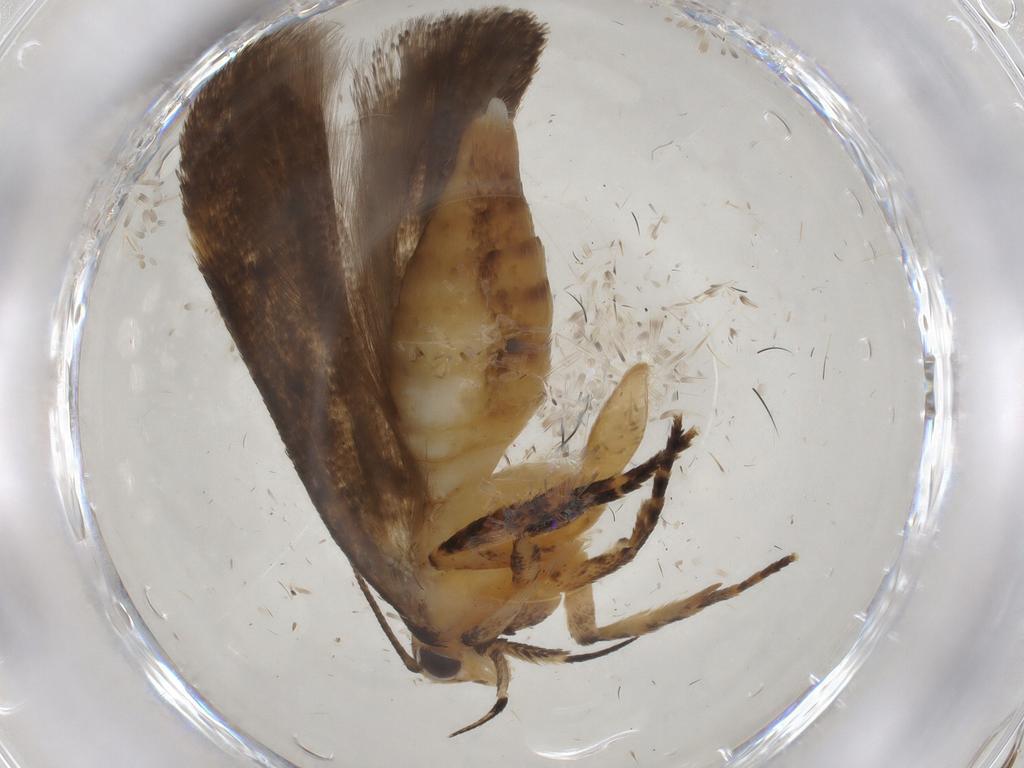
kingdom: Animalia
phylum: Arthropoda
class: Insecta
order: Lepidoptera
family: Gelechiidae
